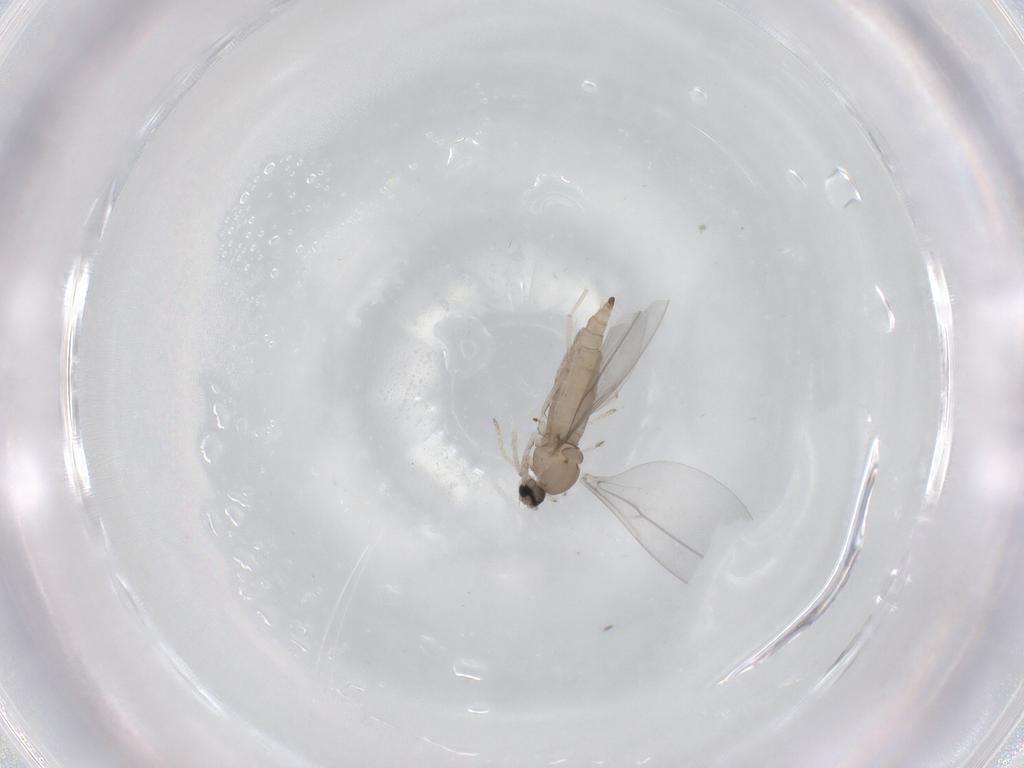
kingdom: Animalia
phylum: Arthropoda
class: Insecta
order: Diptera
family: Cecidomyiidae
